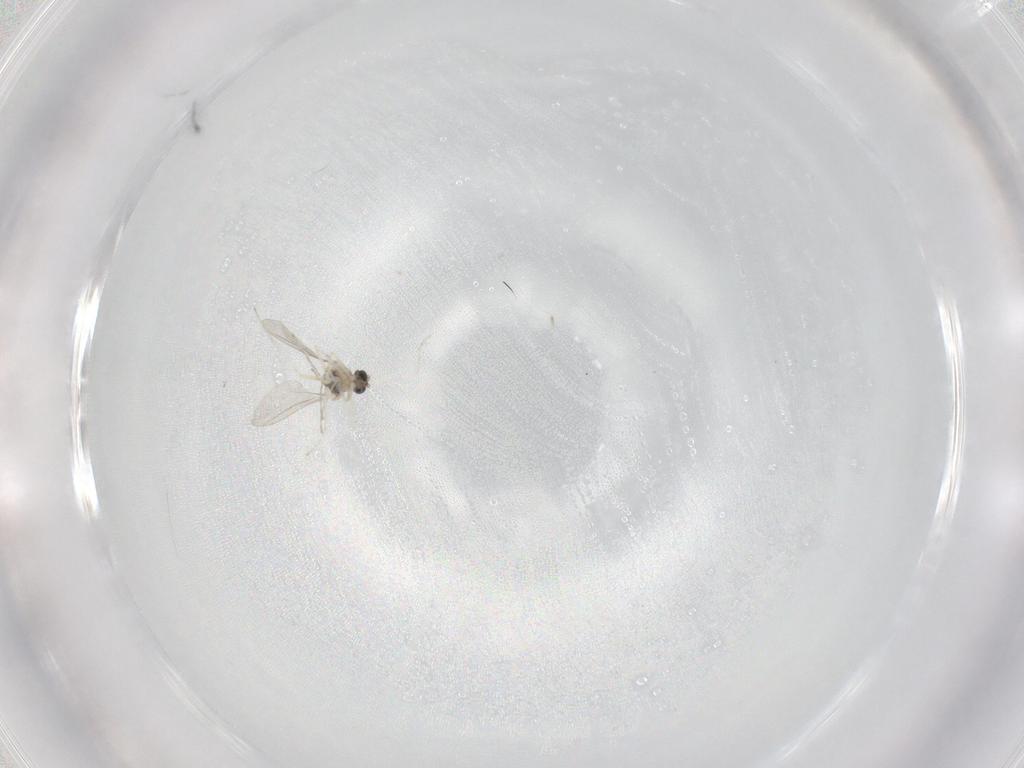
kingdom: Animalia
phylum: Arthropoda
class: Insecta
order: Diptera
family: Cecidomyiidae
